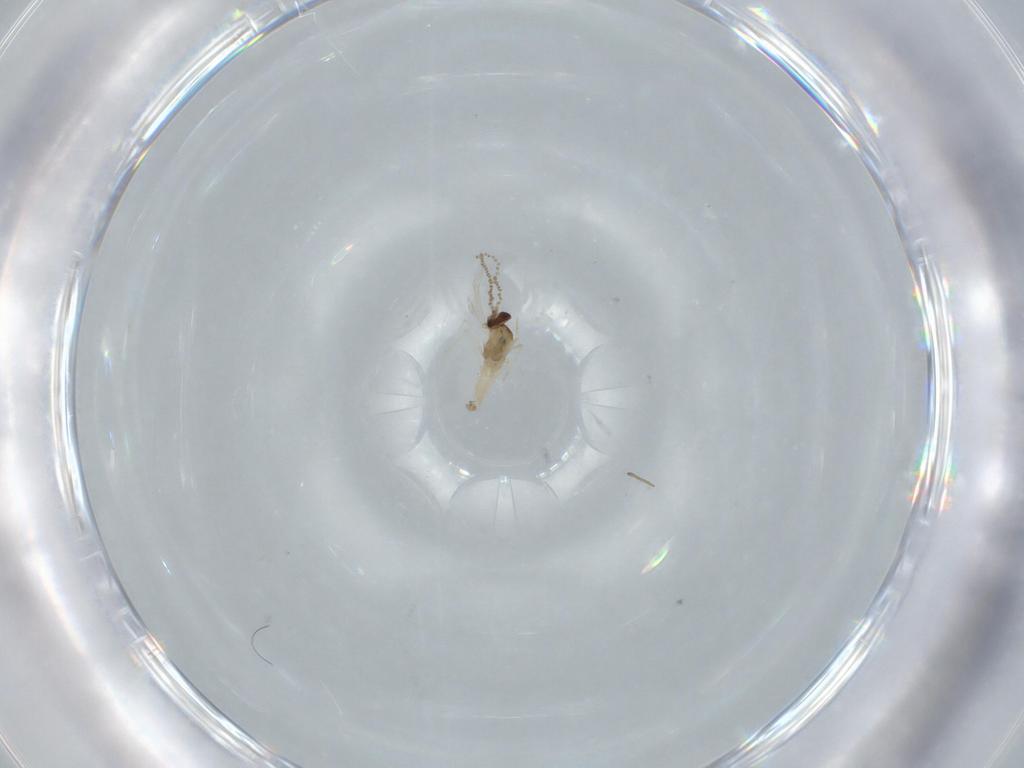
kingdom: Animalia
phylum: Arthropoda
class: Insecta
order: Diptera
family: Cecidomyiidae
